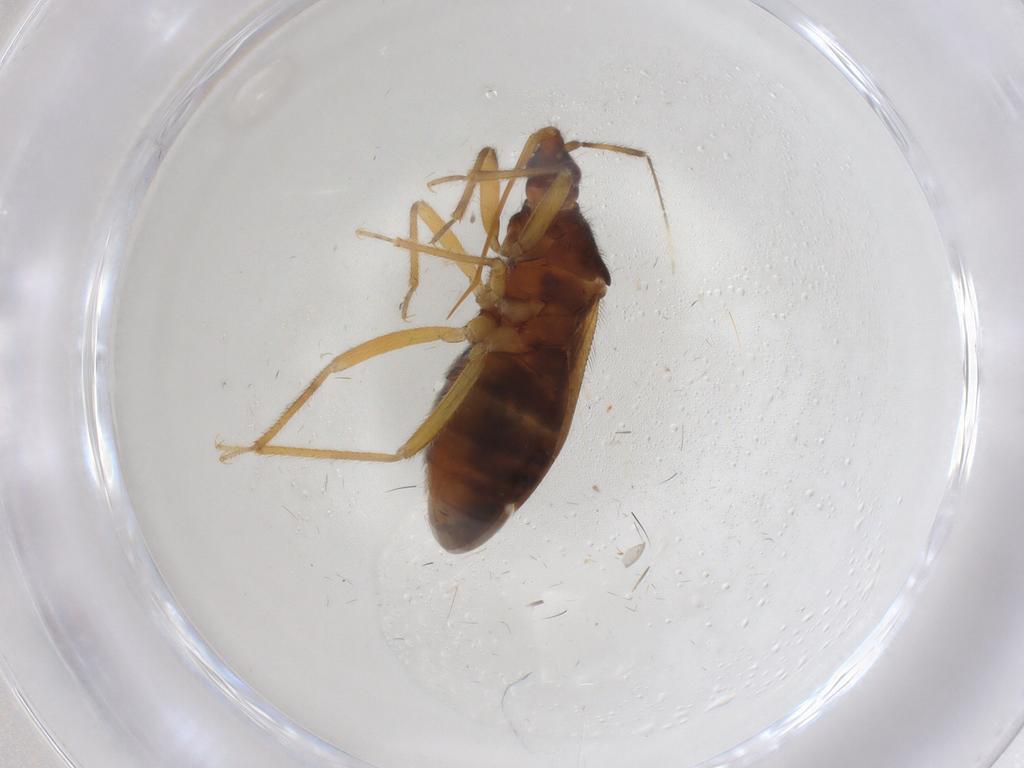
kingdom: Animalia
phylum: Arthropoda
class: Insecta
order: Hemiptera
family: Anthocoridae
